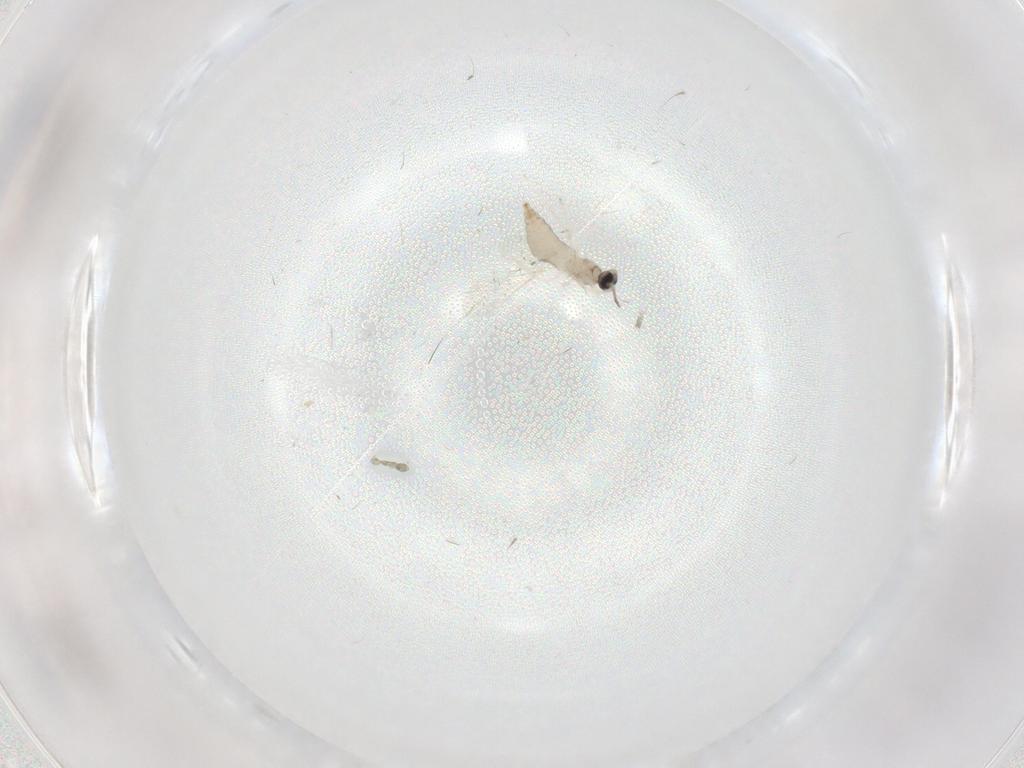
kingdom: Animalia
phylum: Arthropoda
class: Insecta
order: Diptera
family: Cecidomyiidae
